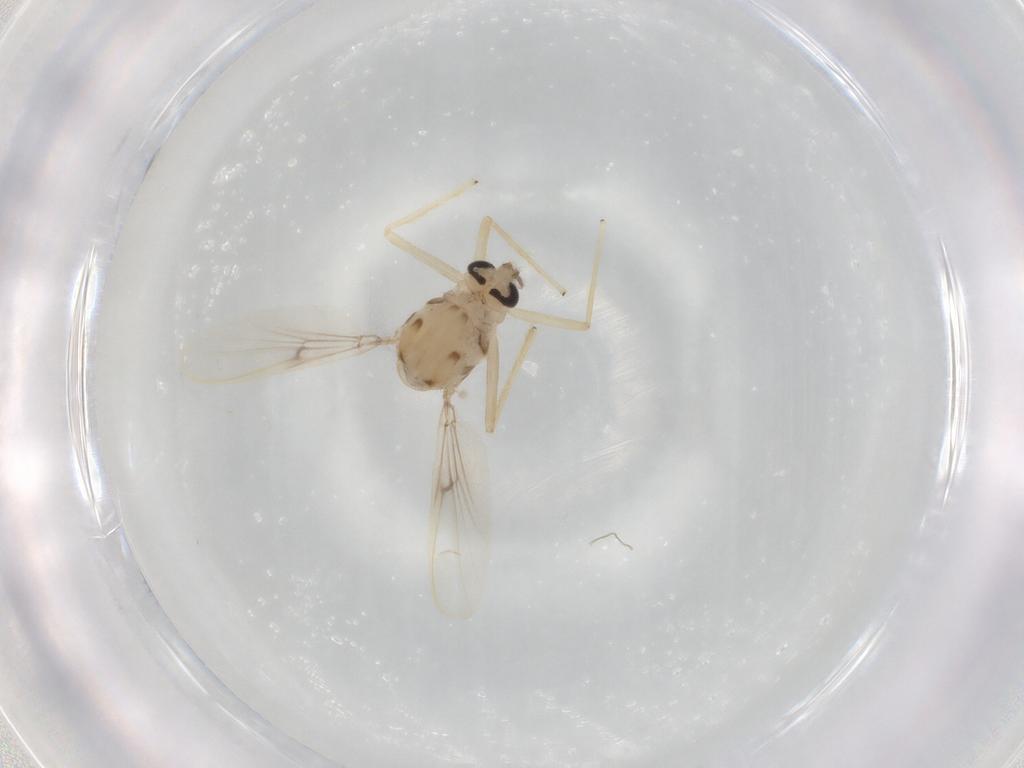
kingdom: Animalia
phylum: Arthropoda
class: Insecta
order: Diptera
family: Chironomidae
